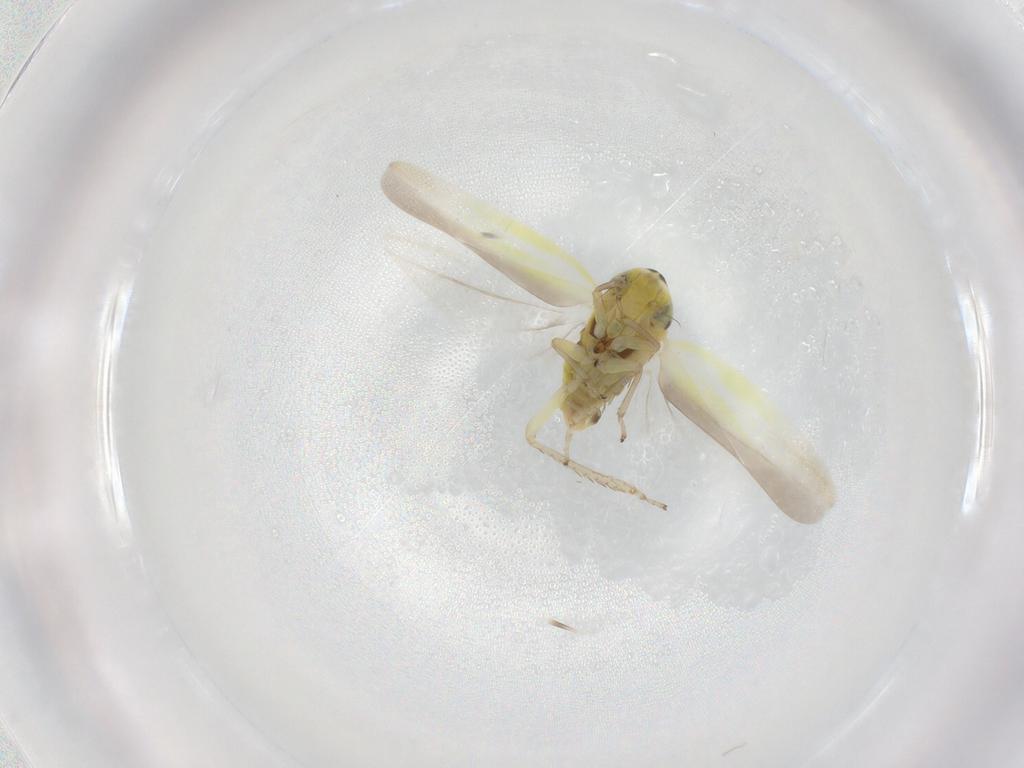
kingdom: Animalia
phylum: Arthropoda
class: Insecta
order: Hemiptera
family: Cicadellidae
